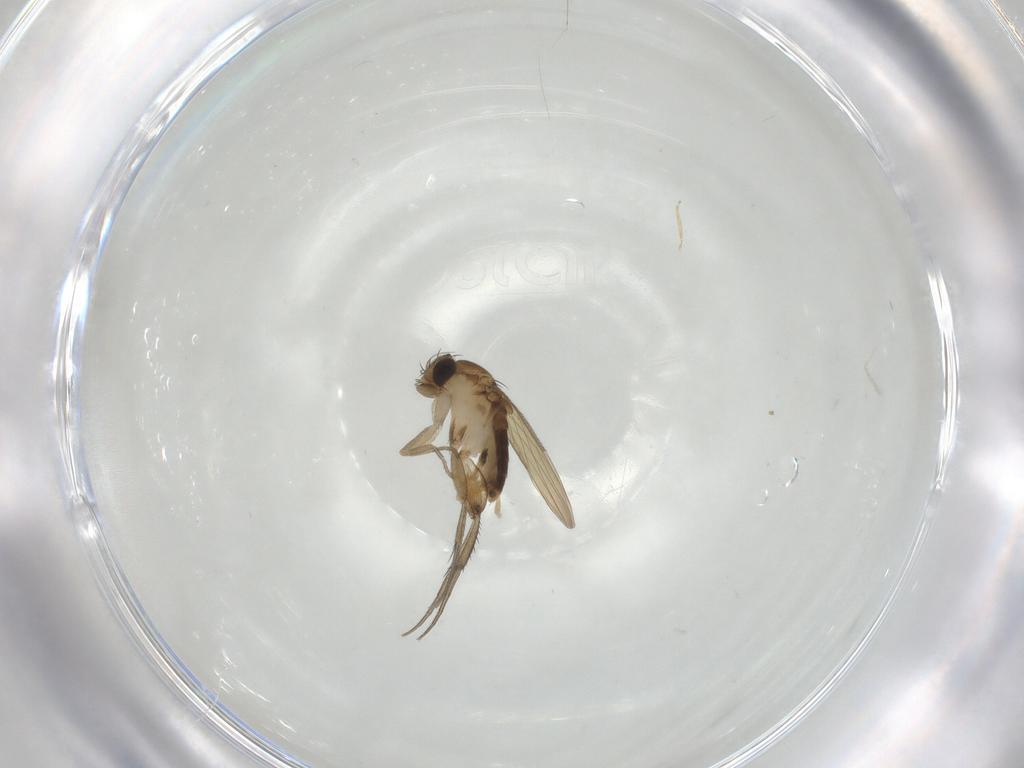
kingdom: Animalia
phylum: Arthropoda
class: Insecta
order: Diptera
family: Phoridae
